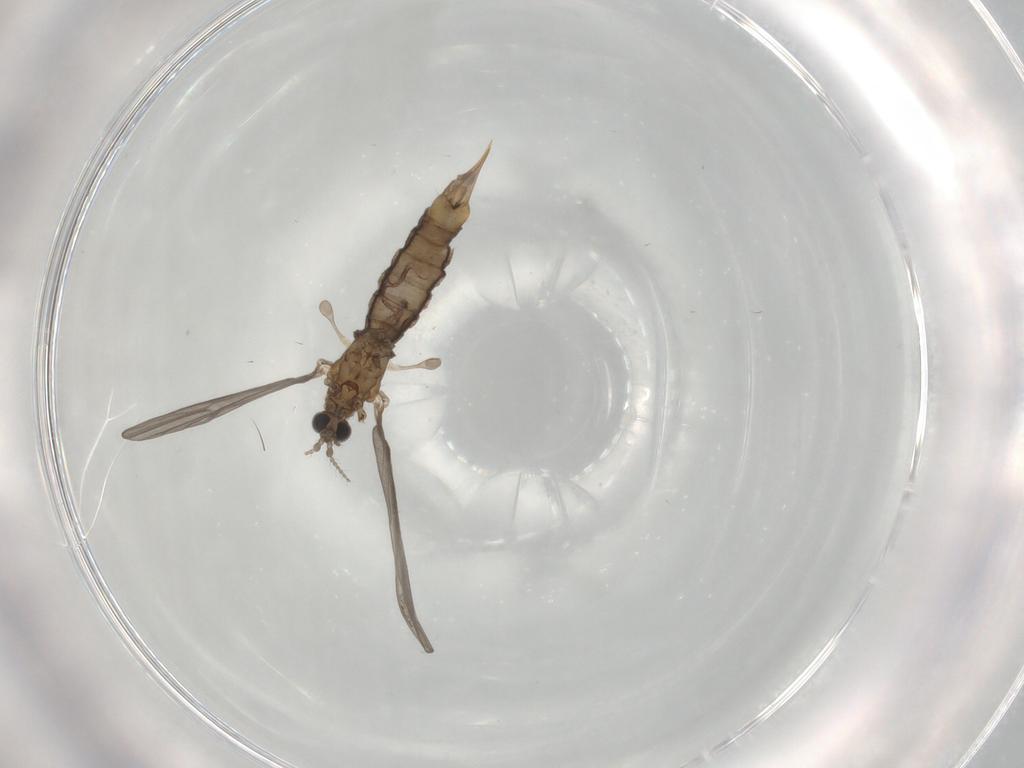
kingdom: Animalia
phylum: Arthropoda
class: Insecta
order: Diptera
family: Limoniidae
